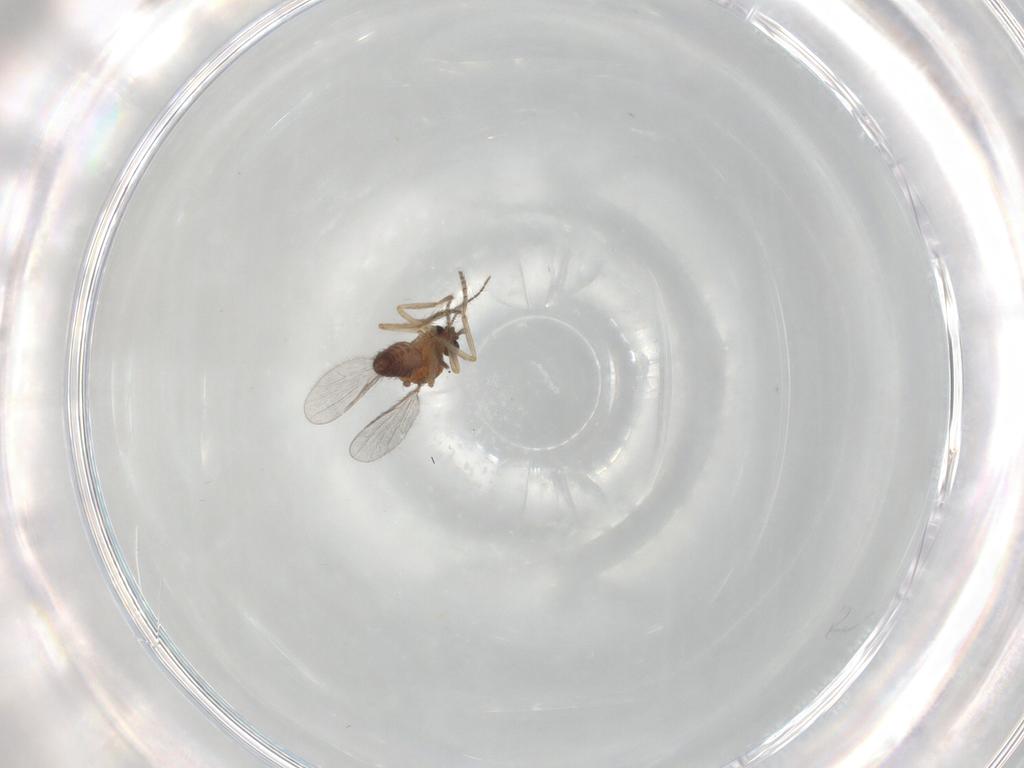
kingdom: Animalia
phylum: Arthropoda
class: Insecta
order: Diptera
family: Ceratopogonidae
